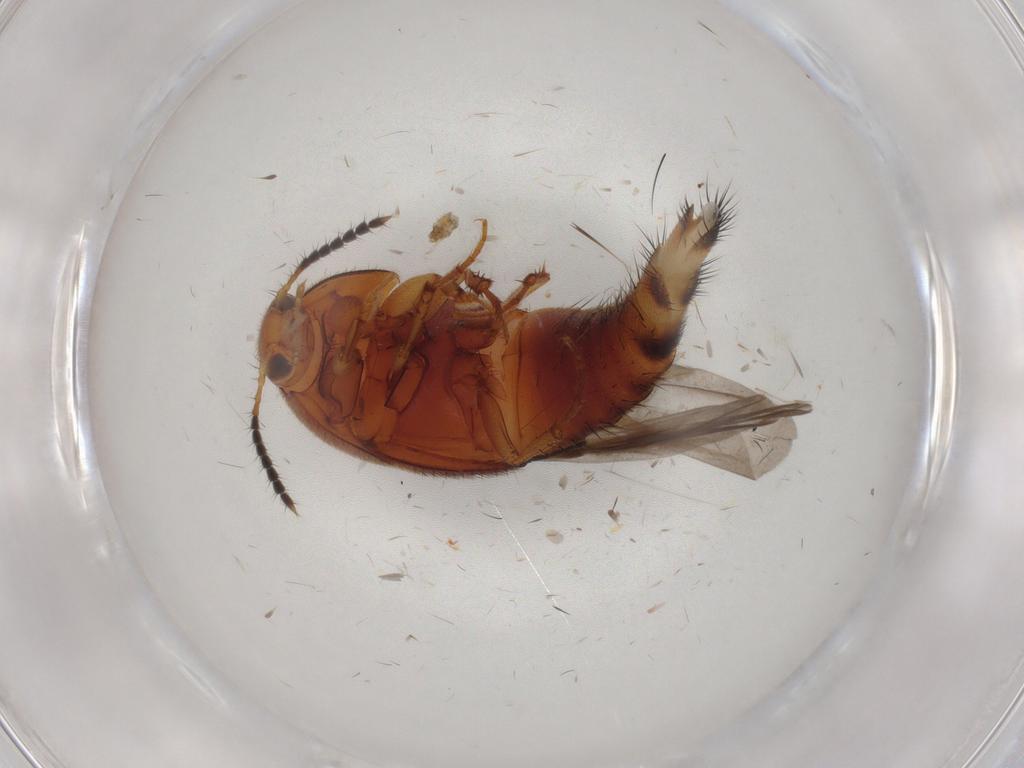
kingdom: Animalia
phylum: Arthropoda
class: Insecta
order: Coleoptera
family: Staphylinidae
